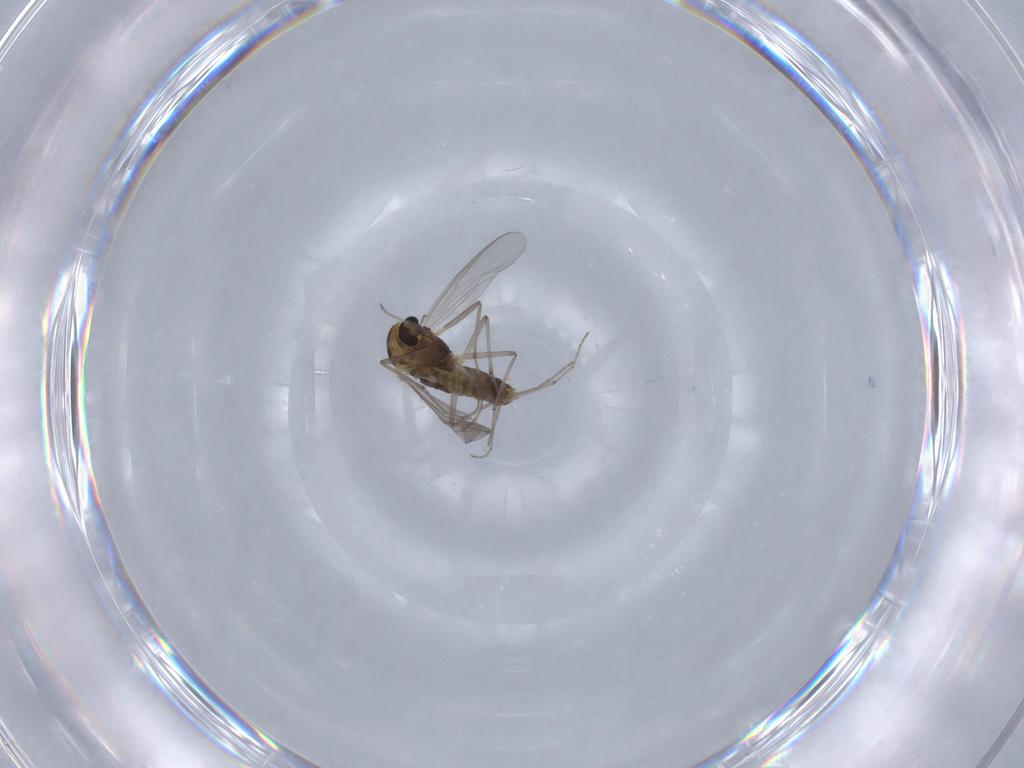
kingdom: Animalia
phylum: Arthropoda
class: Insecta
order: Diptera
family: Chironomidae
